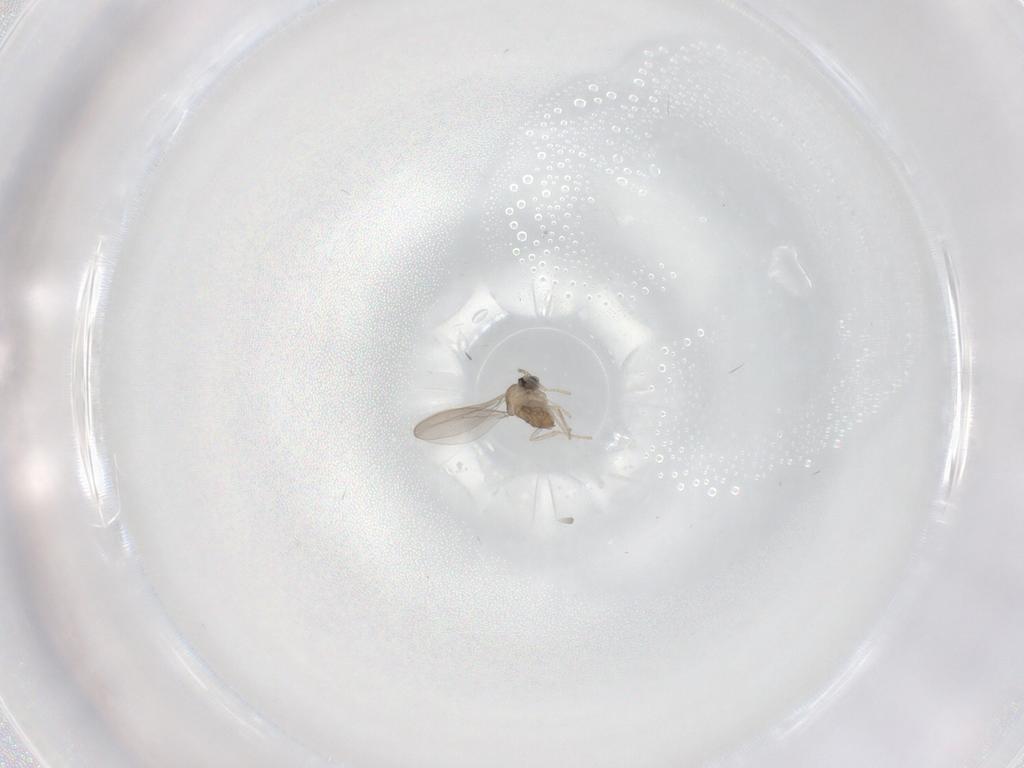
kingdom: Animalia
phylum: Arthropoda
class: Insecta
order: Diptera
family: Cecidomyiidae
